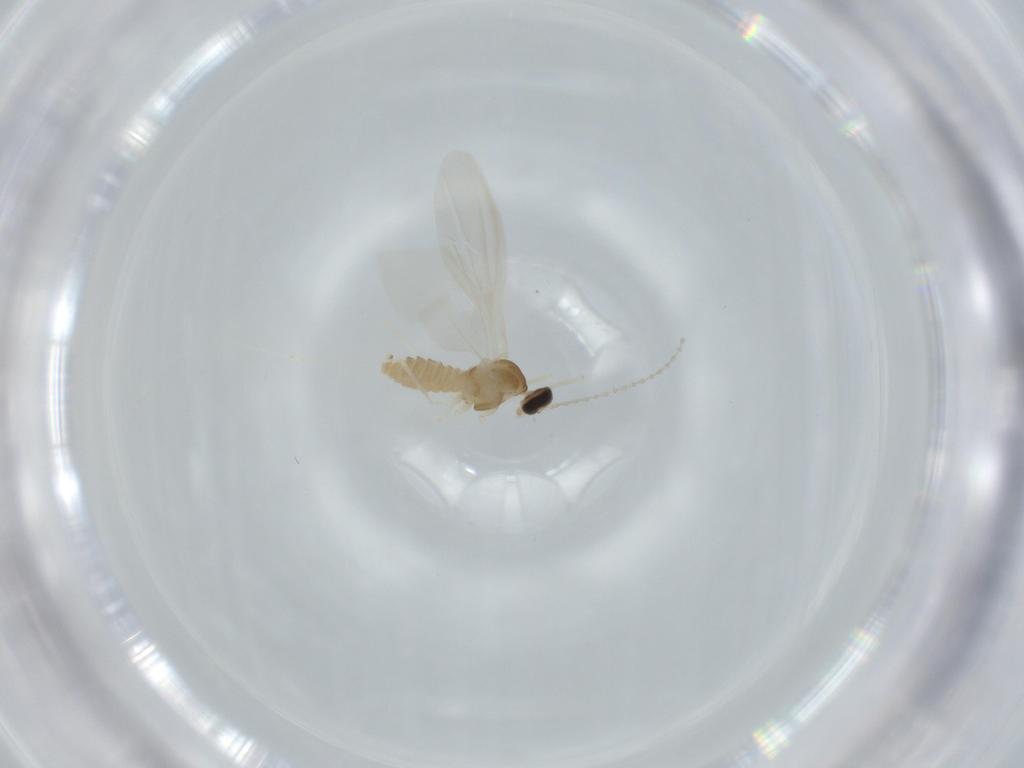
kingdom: Animalia
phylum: Arthropoda
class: Insecta
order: Diptera
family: Cecidomyiidae
